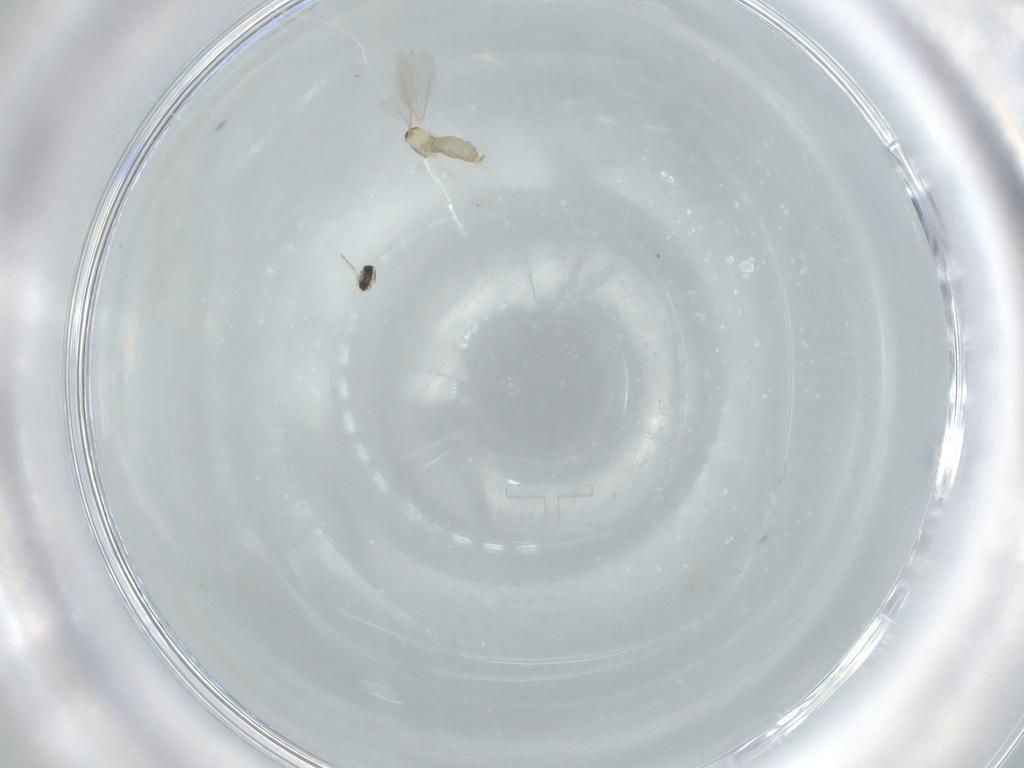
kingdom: Animalia
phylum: Arthropoda
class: Insecta
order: Diptera
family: Cecidomyiidae
